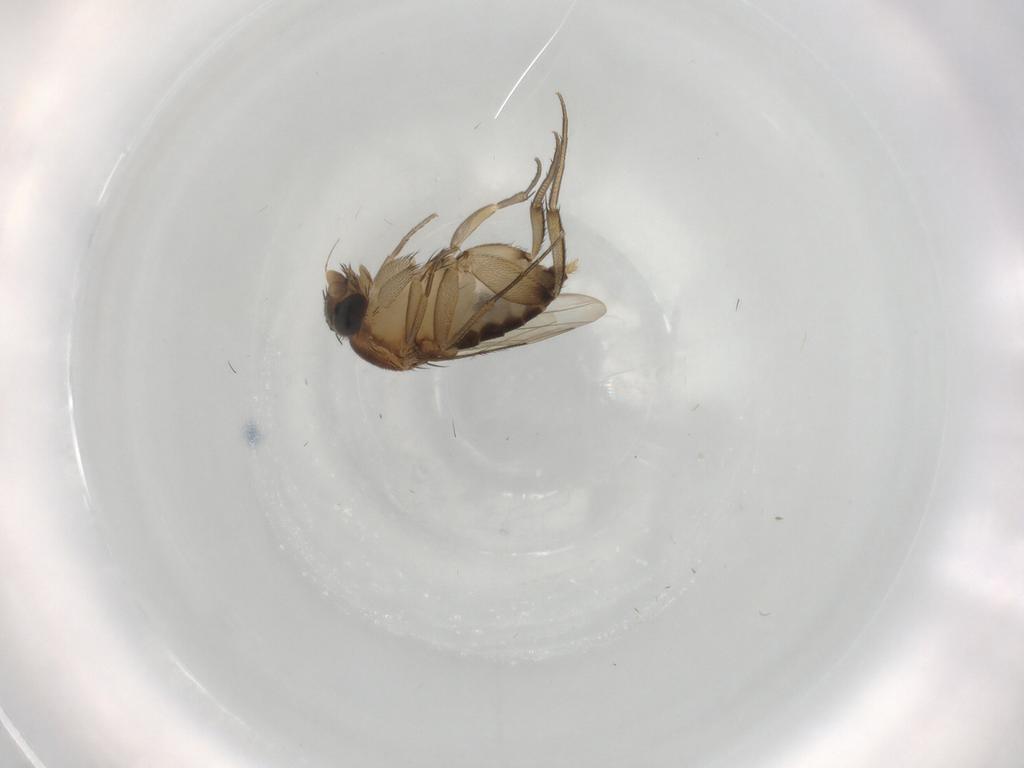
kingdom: Animalia
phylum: Arthropoda
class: Insecta
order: Diptera
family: Phoridae
